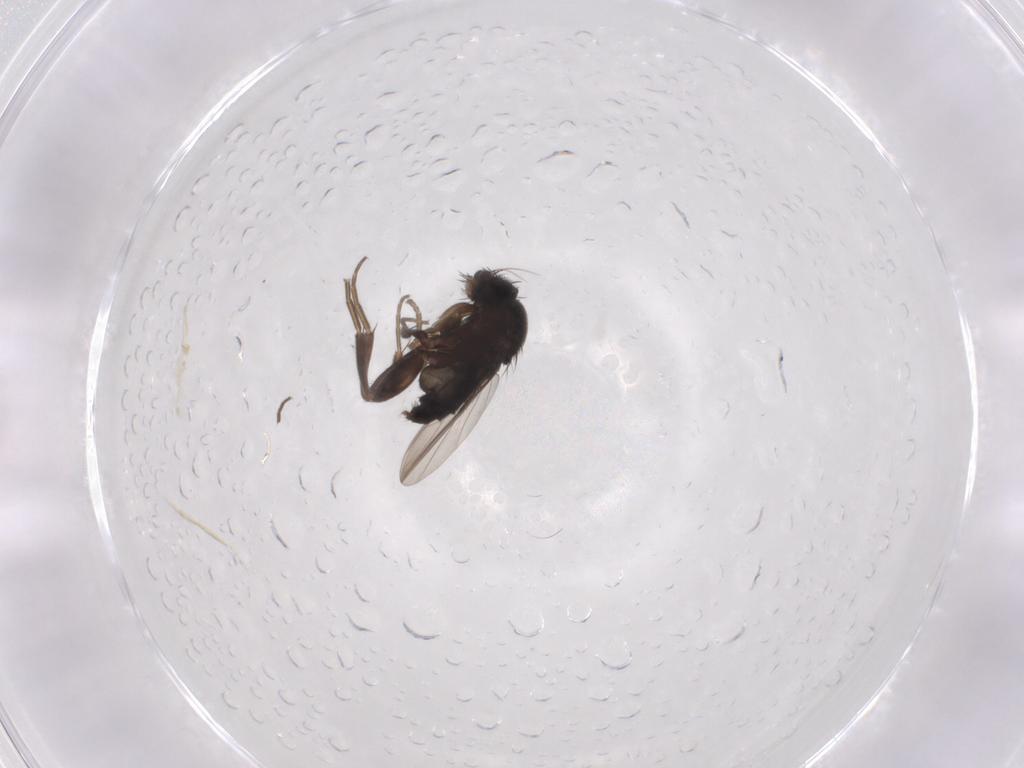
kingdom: Animalia
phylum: Arthropoda
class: Insecta
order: Diptera
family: Phoridae
